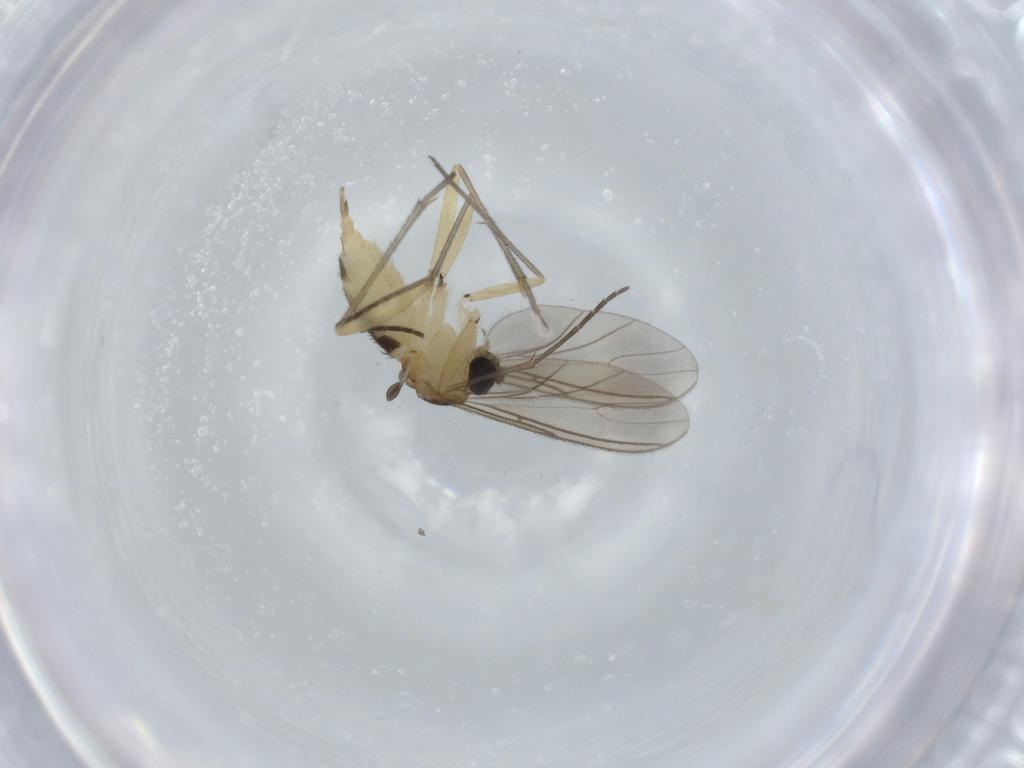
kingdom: Animalia
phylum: Arthropoda
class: Insecta
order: Diptera
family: Sciaridae
